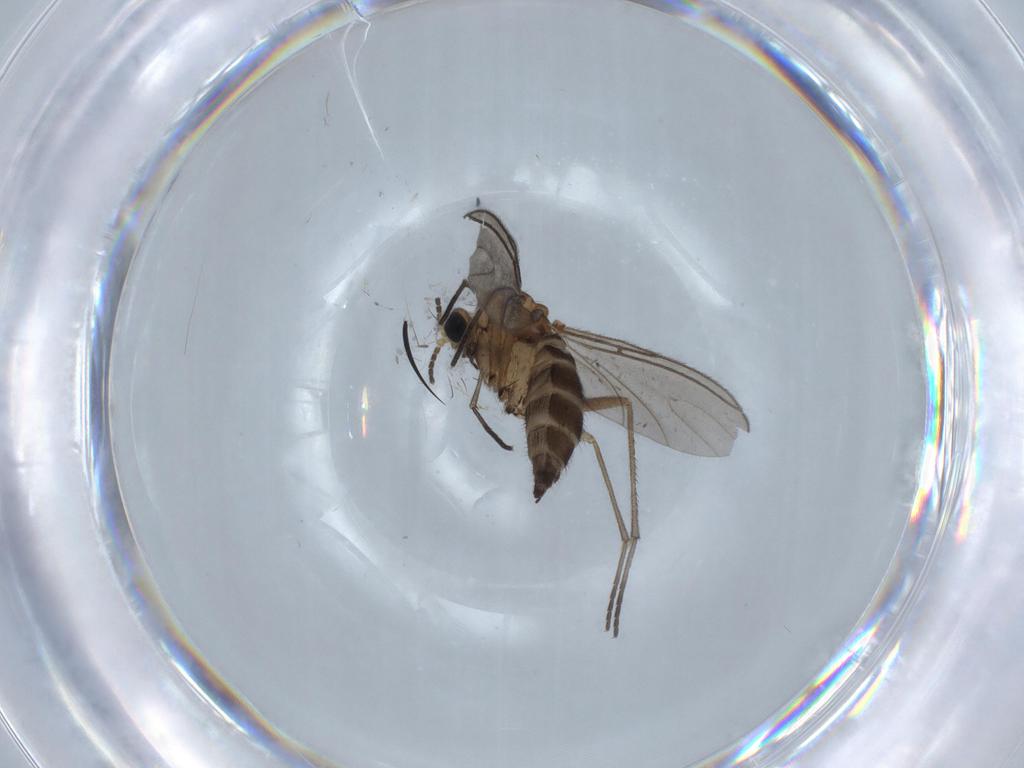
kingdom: Animalia
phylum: Arthropoda
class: Insecta
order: Diptera
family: Sciaridae
